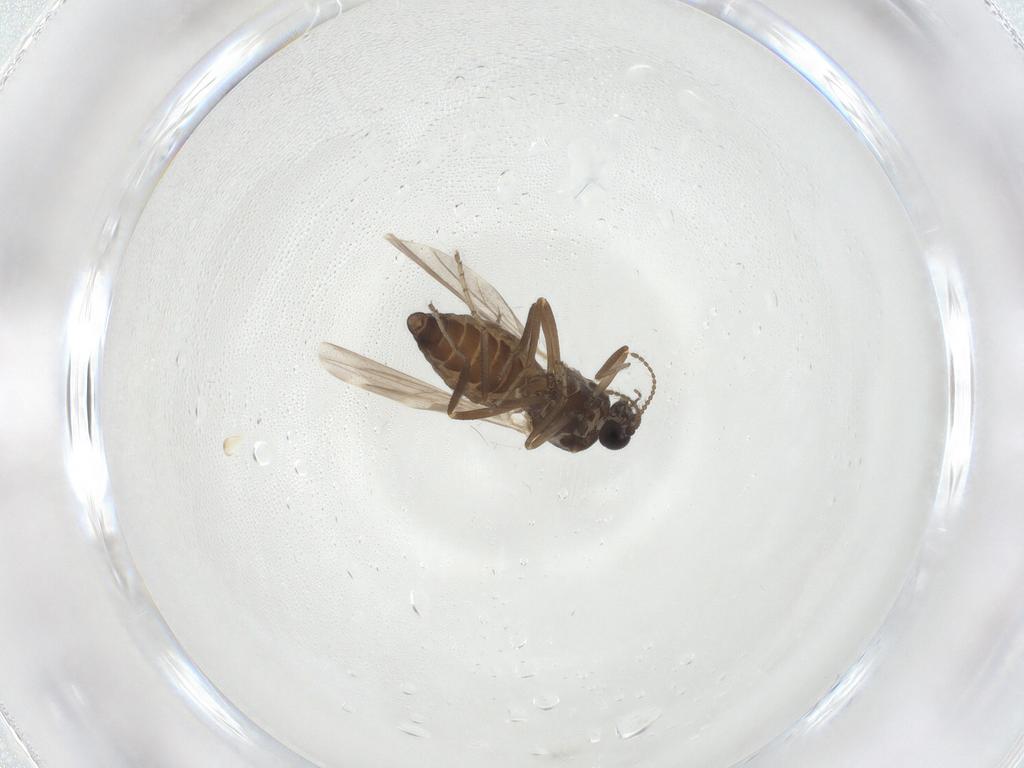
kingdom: Animalia
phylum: Arthropoda
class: Insecta
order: Diptera
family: Ceratopogonidae
